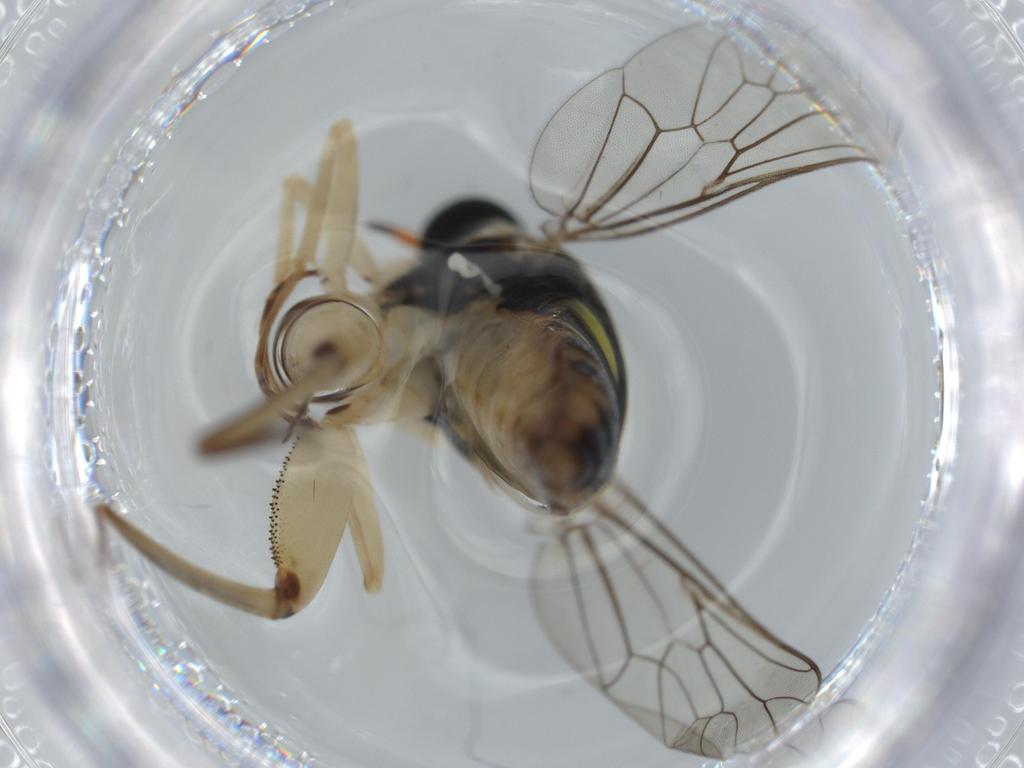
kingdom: Animalia
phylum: Arthropoda
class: Insecta
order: Diptera
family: Sciaridae
